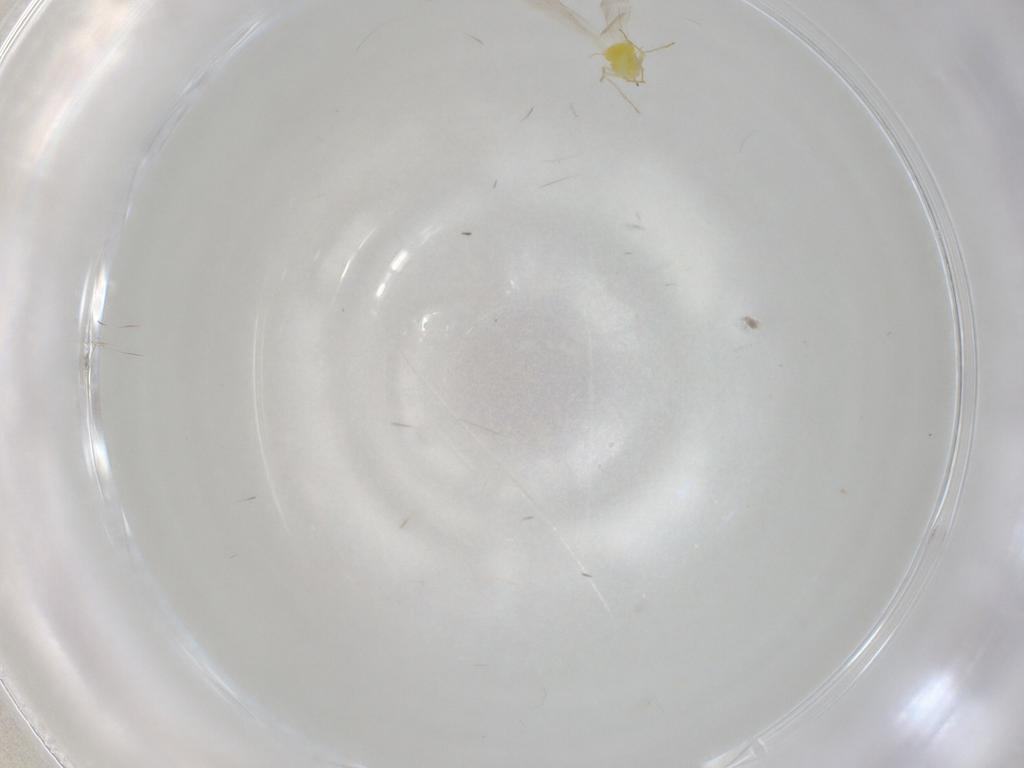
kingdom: Animalia
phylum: Arthropoda
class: Insecta
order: Hemiptera
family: Aleyrodidae
